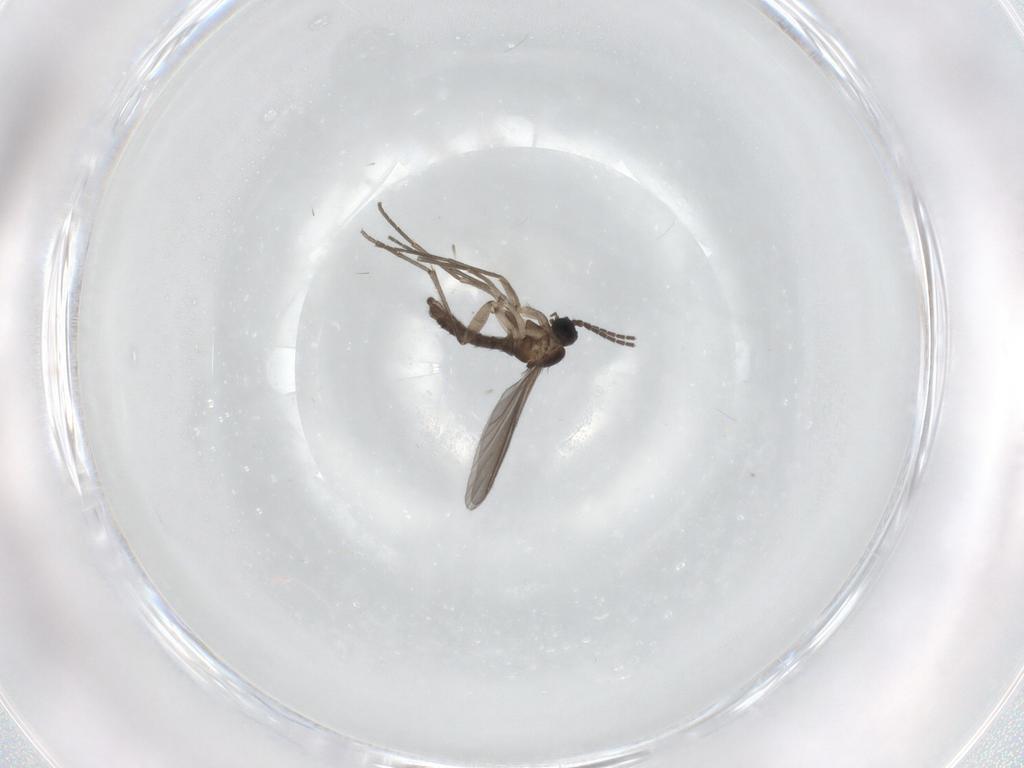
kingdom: Animalia
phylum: Arthropoda
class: Insecta
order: Diptera
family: Sciaridae
